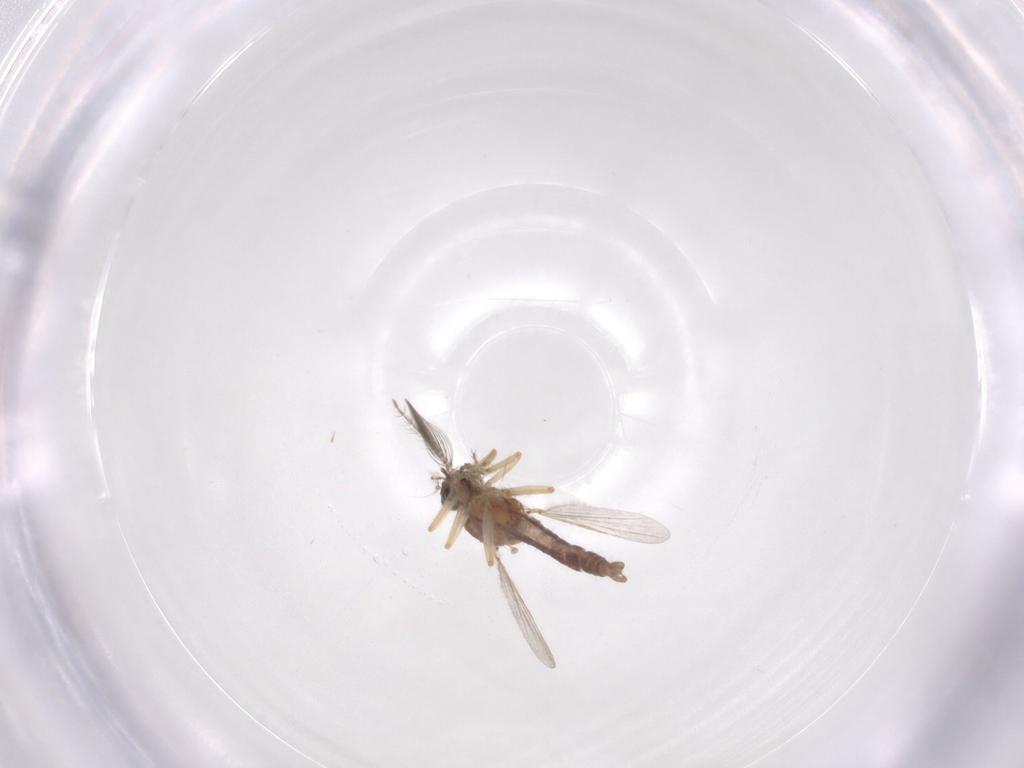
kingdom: Animalia
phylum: Arthropoda
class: Insecta
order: Diptera
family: Ceratopogonidae
